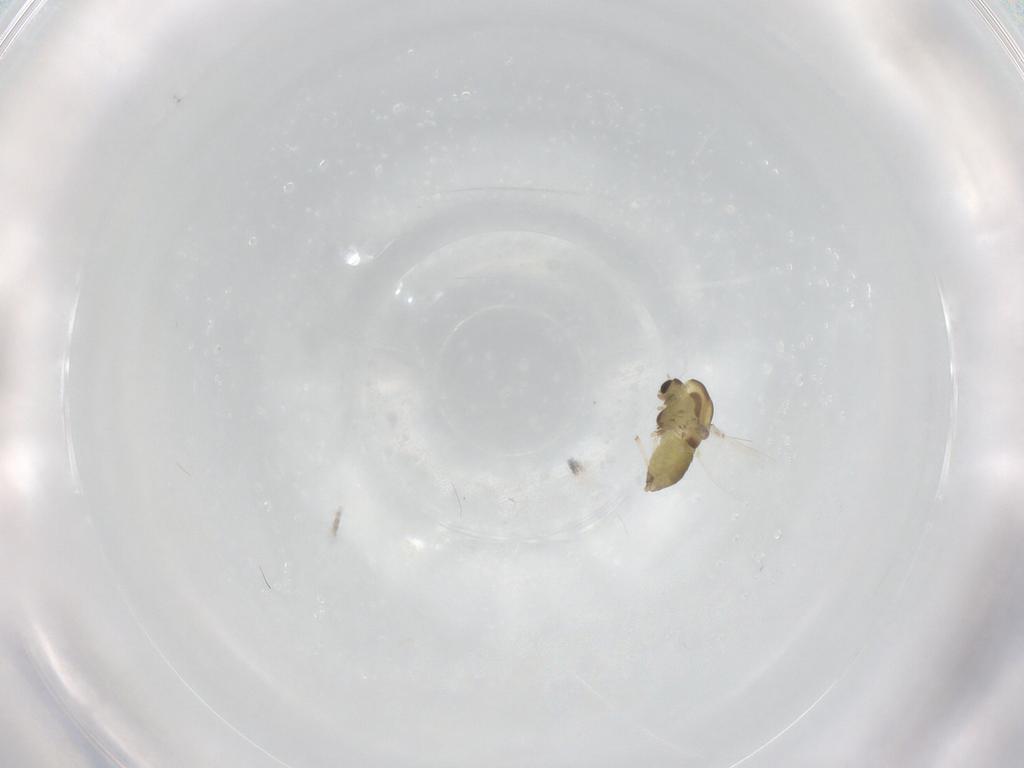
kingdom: Animalia
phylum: Arthropoda
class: Insecta
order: Diptera
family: Chironomidae
